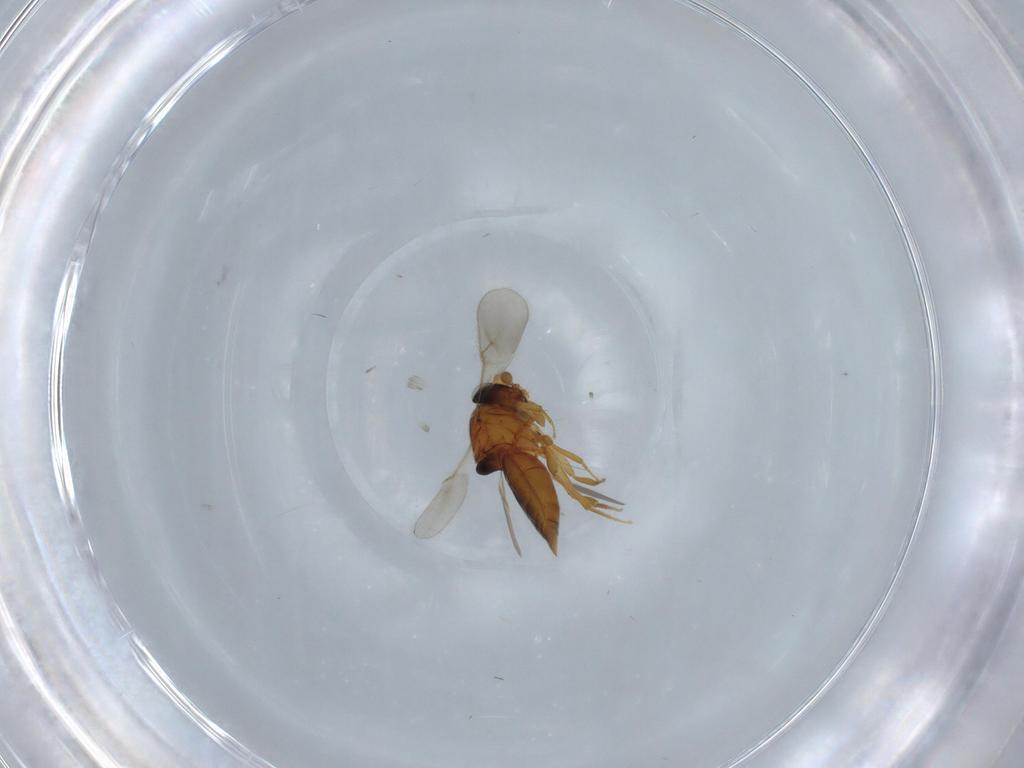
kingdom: Animalia
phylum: Arthropoda
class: Insecta
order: Hymenoptera
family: Scelionidae
